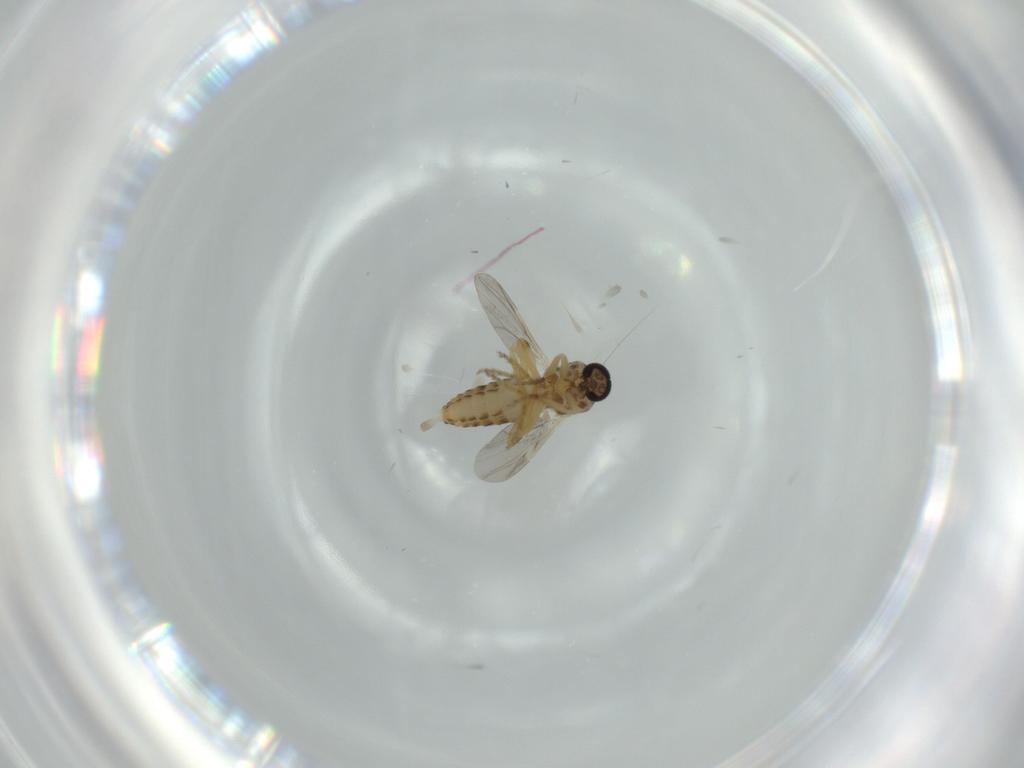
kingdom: Animalia
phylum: Arthropoda
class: Insecta
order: Diptera
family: Ceratopogonidae
